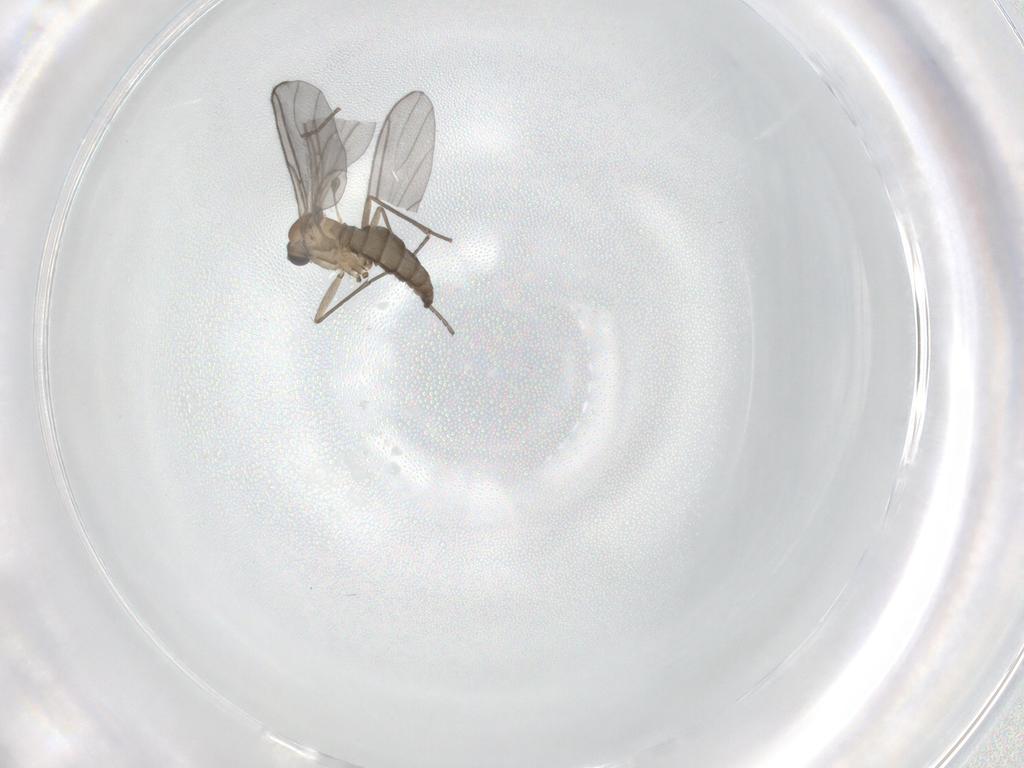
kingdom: Animalia
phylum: Arthropoda
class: Insecta
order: Diptera
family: Sciaridae
